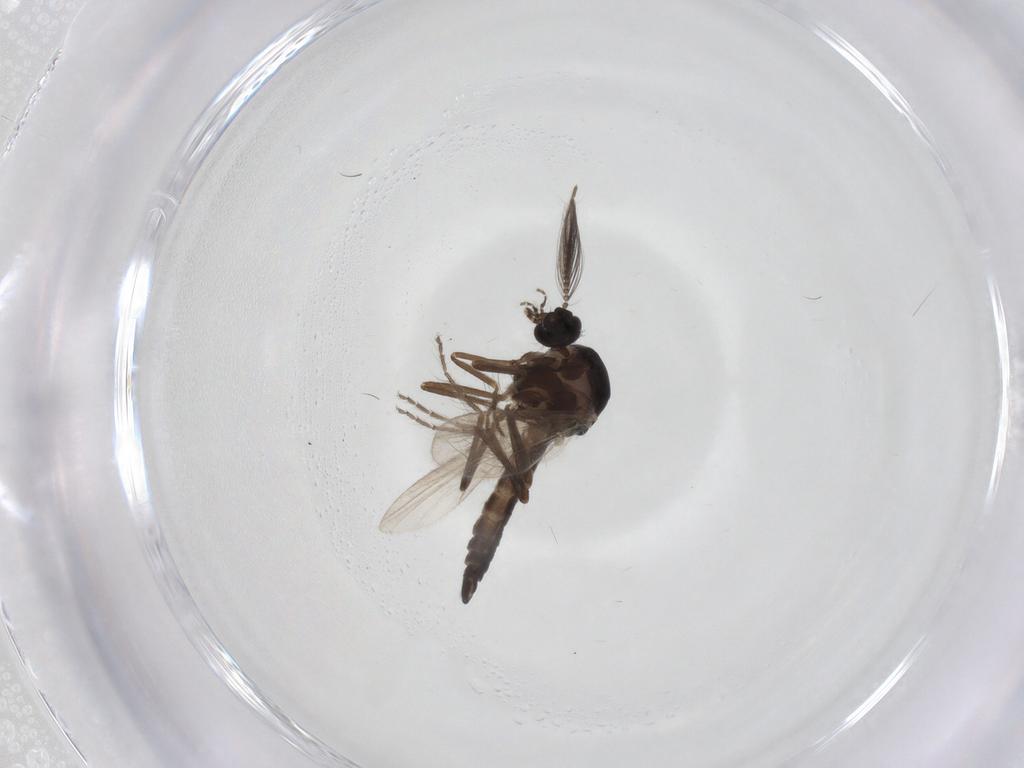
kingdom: Animalia
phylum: Arthropoda
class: Insecta
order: Diptera
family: Ceratopogonidae
